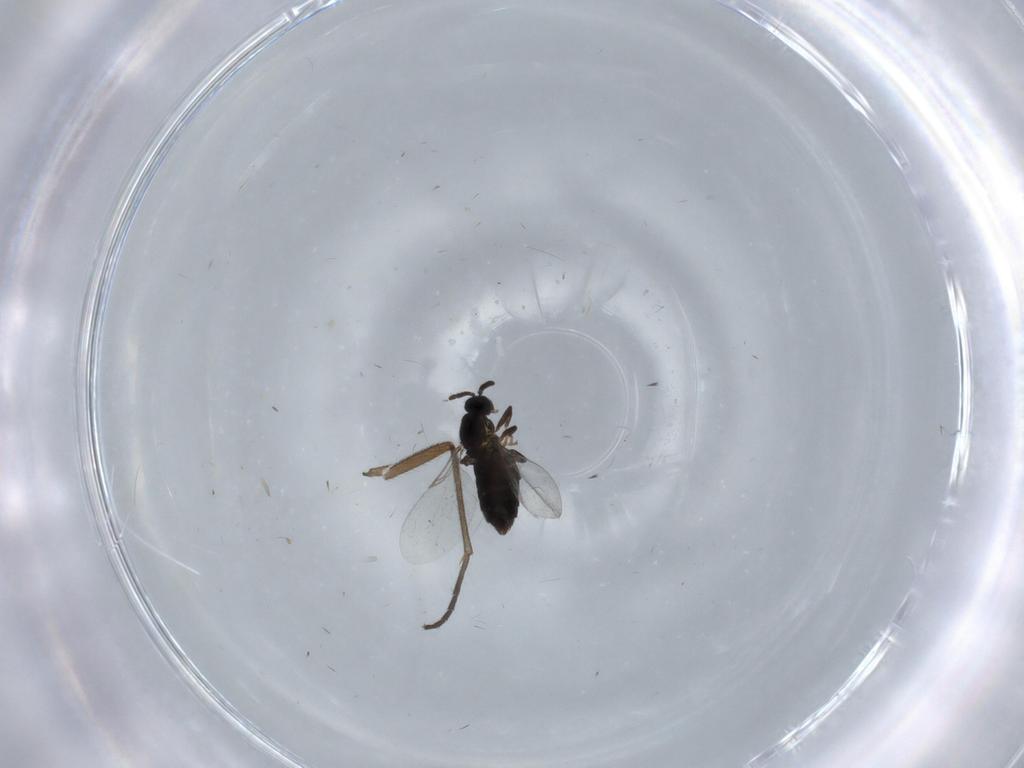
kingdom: Animalia
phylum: Arthropoda
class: Insecta
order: Diptera
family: Scatopsidae
